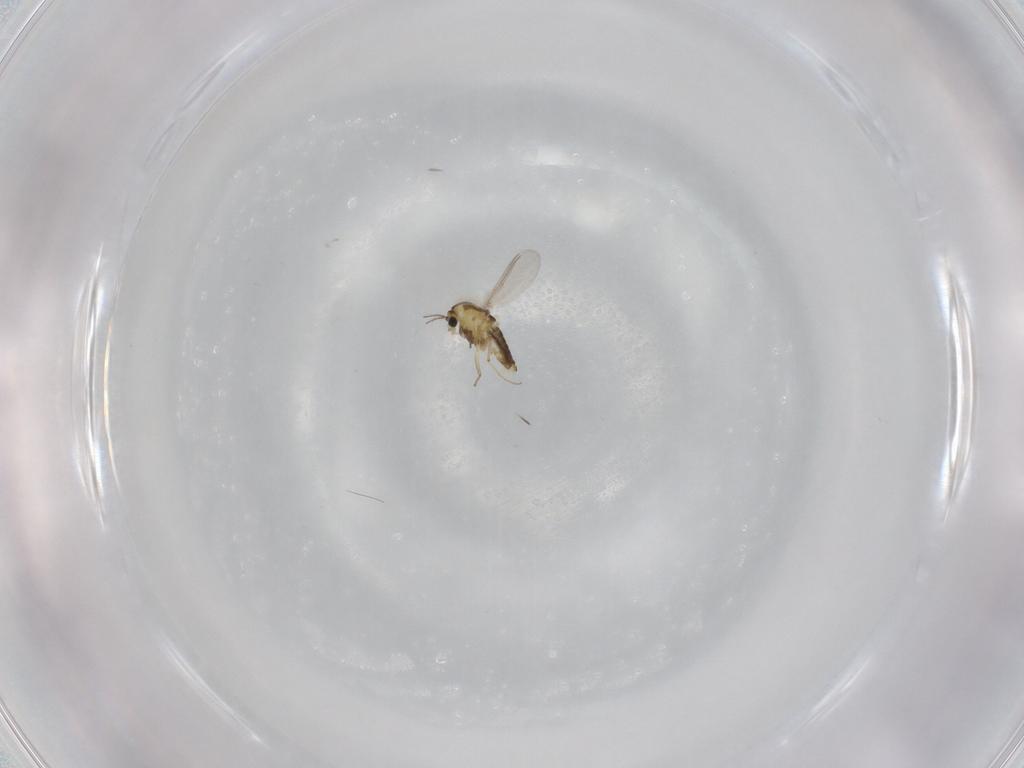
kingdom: Animalia
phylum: Arthropoda
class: Insecta
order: Diptera
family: Dolichopodidae
